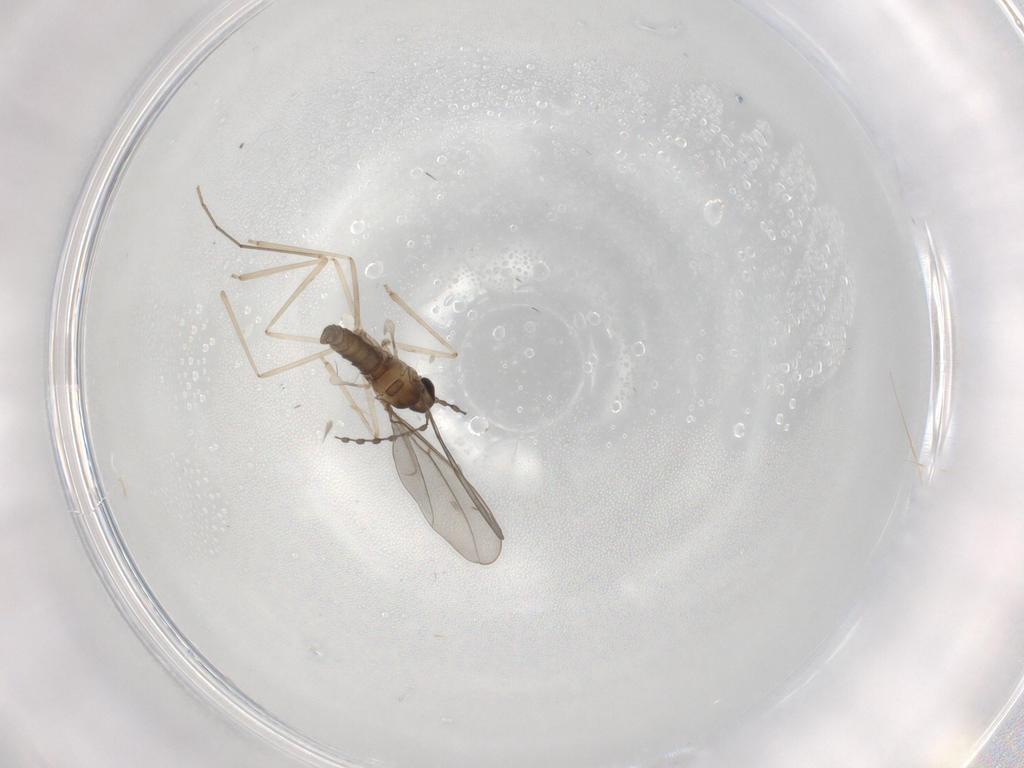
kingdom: Animalia
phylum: Arthropoda
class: Insecta
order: Diptera
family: Cecidomyiidae
